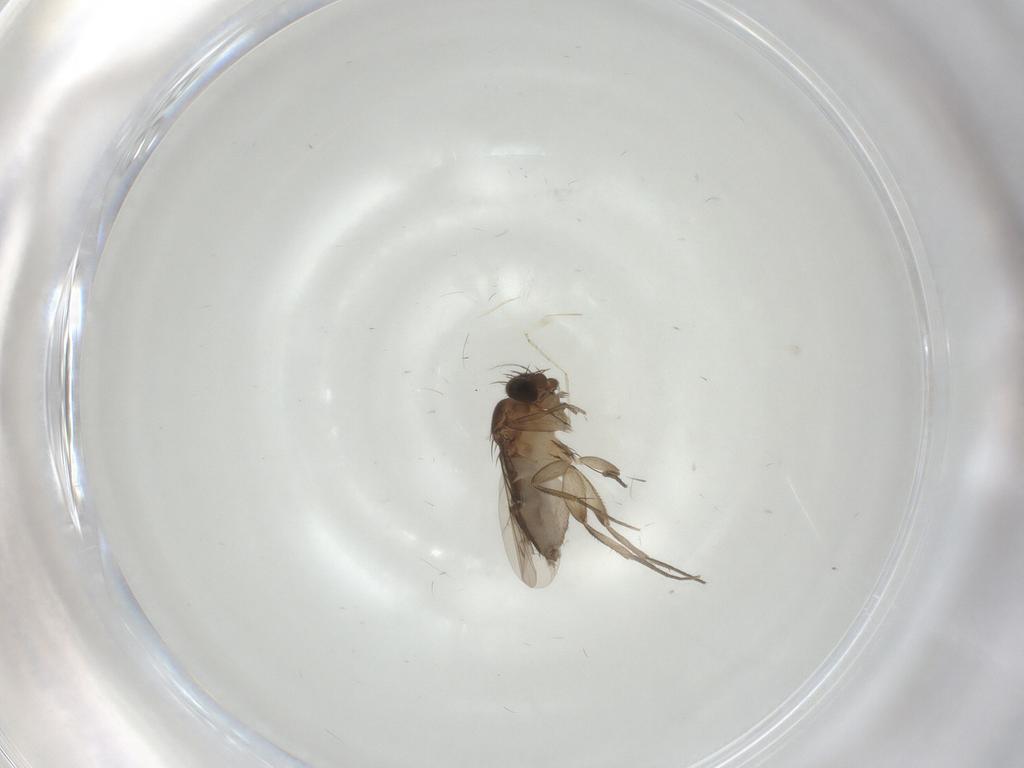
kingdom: Animalia
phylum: Arthropoda
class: Insecta
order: Diptera
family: Phoridae
